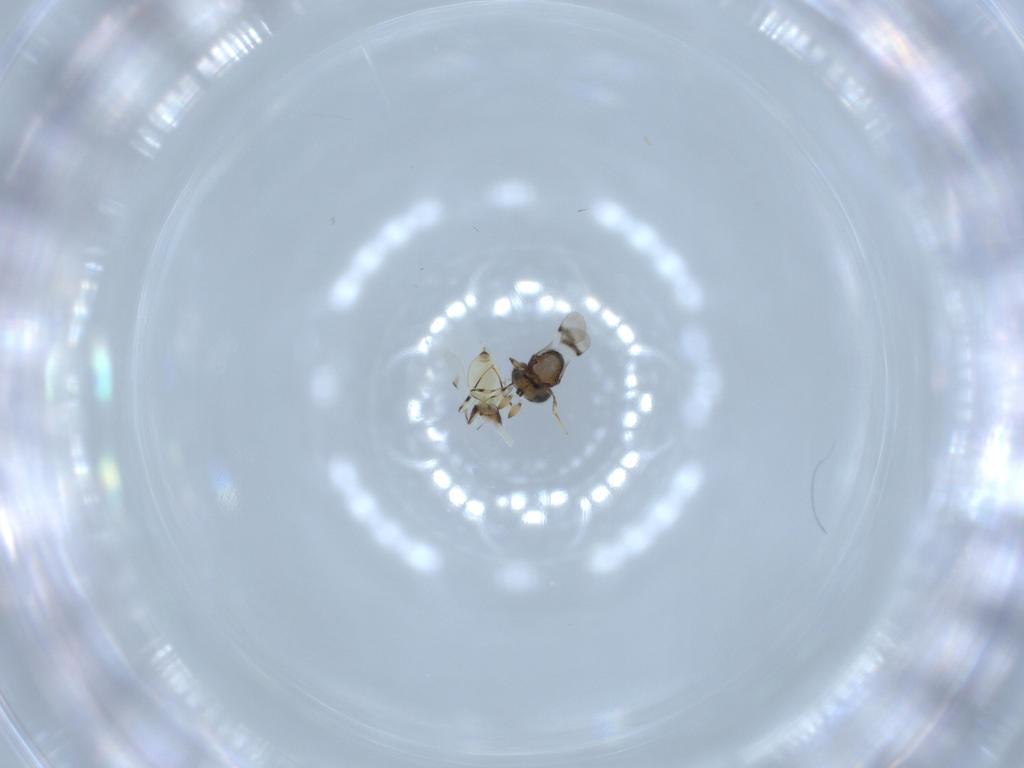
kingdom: Animalia
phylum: Arthropoda
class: Insecta
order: Hymenoptera
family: Scelionidae
